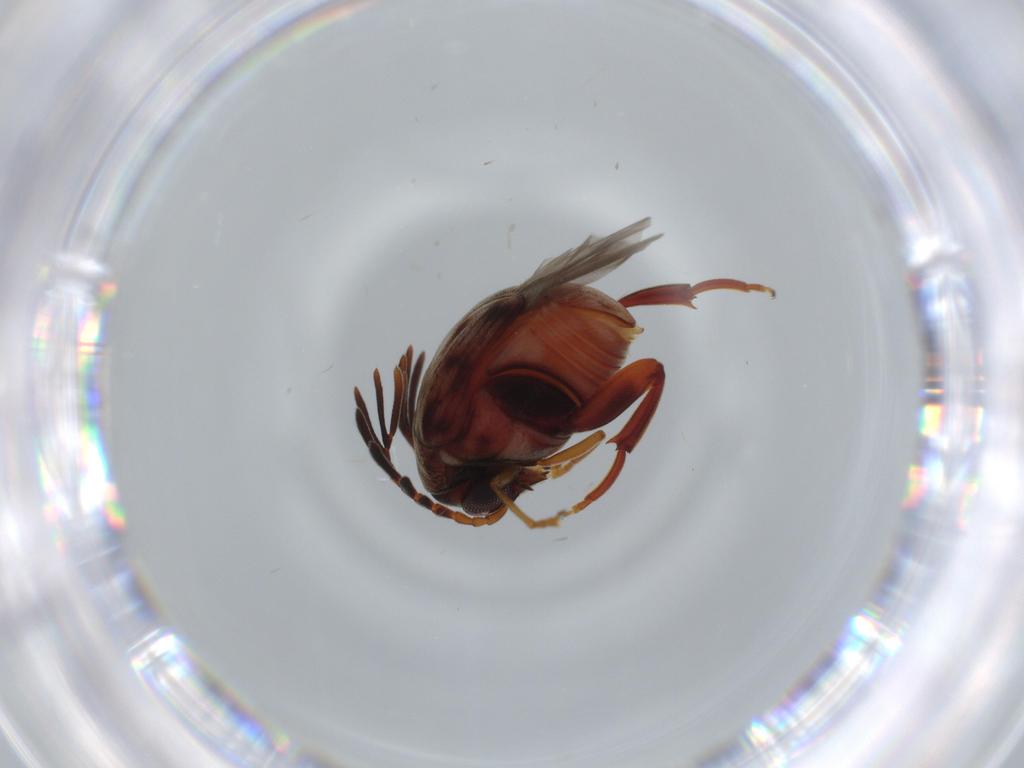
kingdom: Animalia
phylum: Arthropoda
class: Insecta
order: Coleoptera
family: Chrysomelidae
